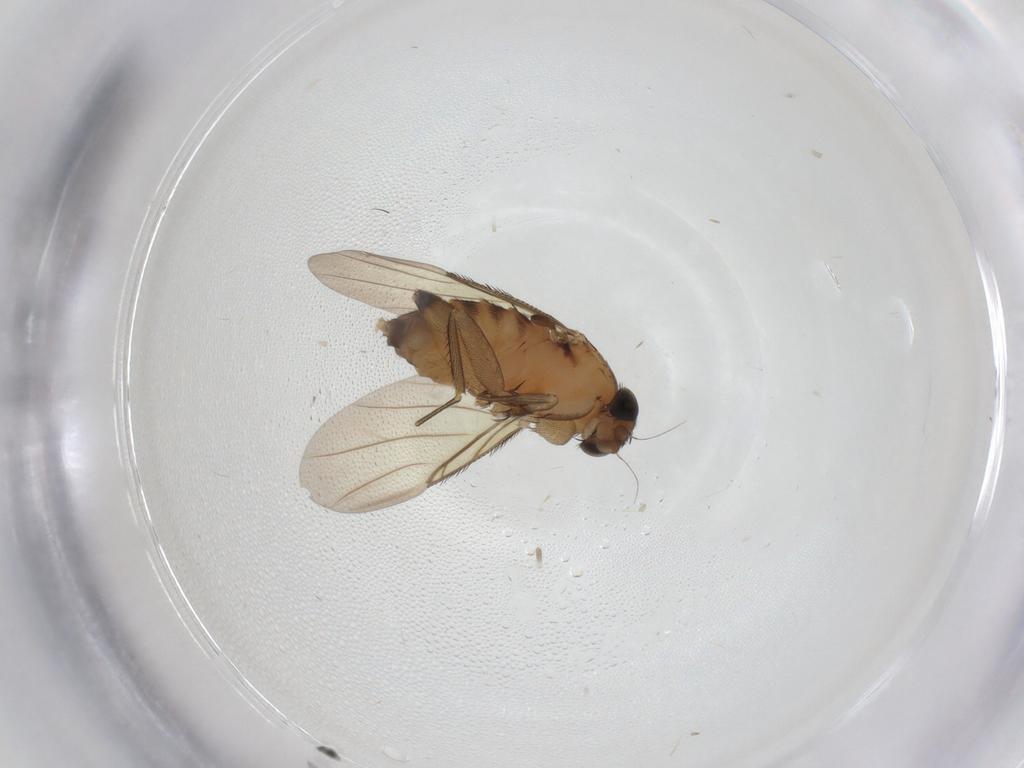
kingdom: Animalia
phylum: Arthropoda
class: Insecta
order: Diptera
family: Phoridae
